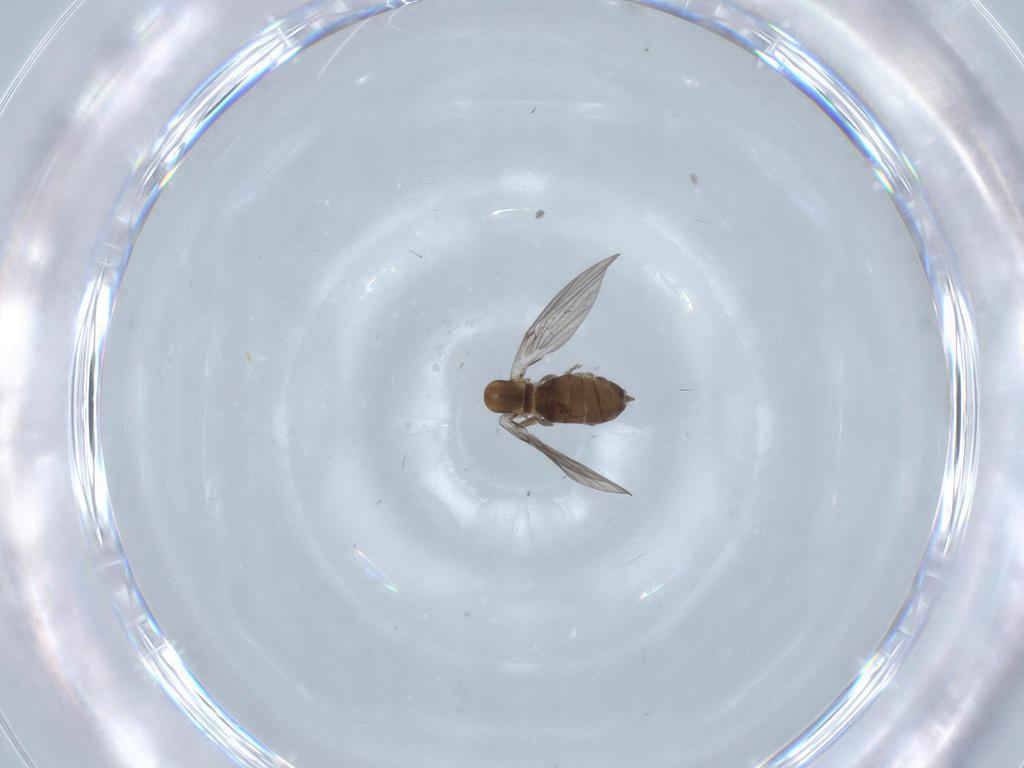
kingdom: Animalia
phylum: Arthropoda
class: Insecta
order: Diptera
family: Psychodidae
